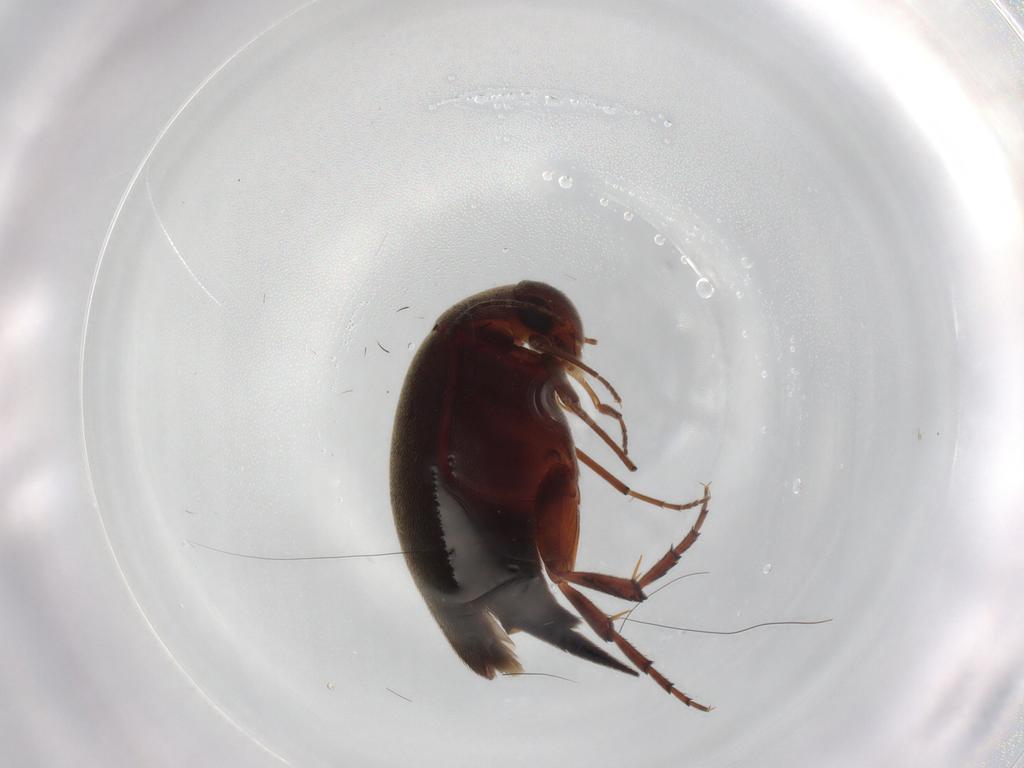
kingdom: Animalia
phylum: Arthropoda
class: Insecta
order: Coleoptera
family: Mordellidae
